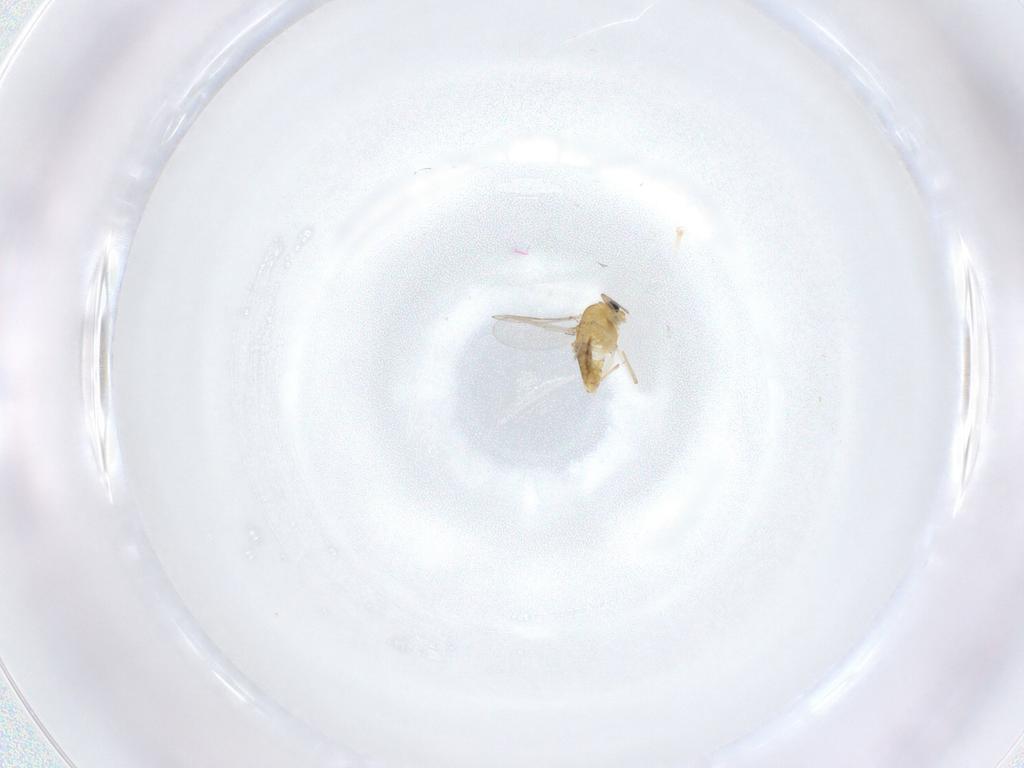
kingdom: Animalia
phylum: Arthropoda
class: Insecta
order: Diptera
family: Chironomidae
